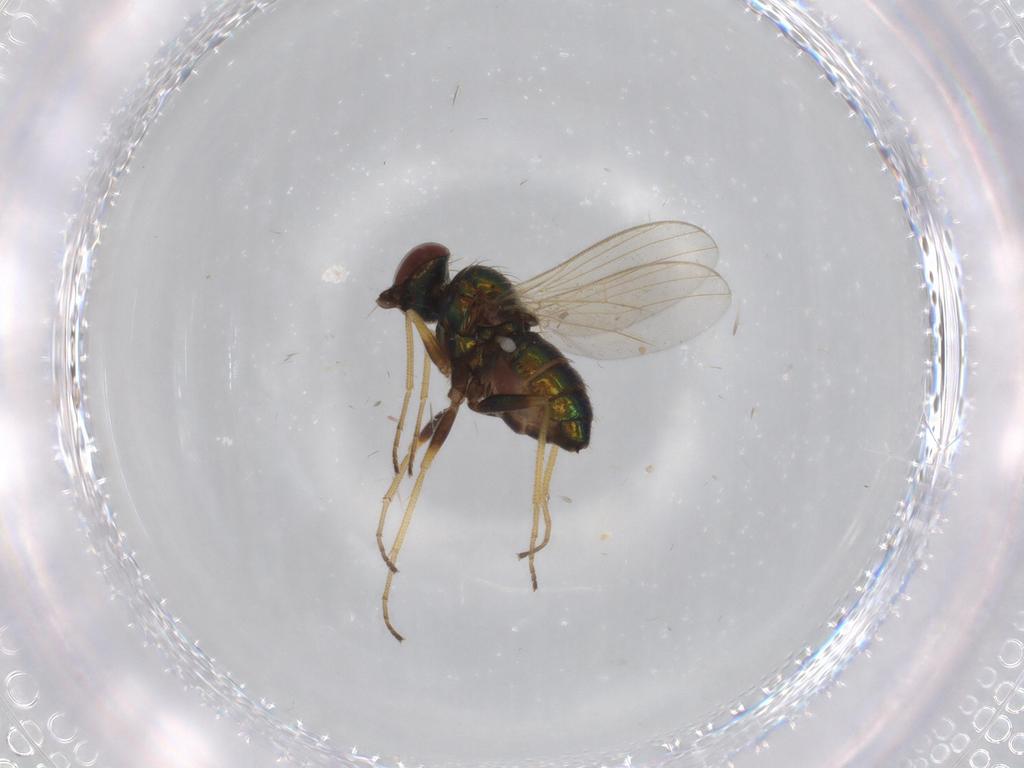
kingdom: Animalia
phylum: Arthropoda
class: Insecta
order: Diptera
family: Dolichopodidae
